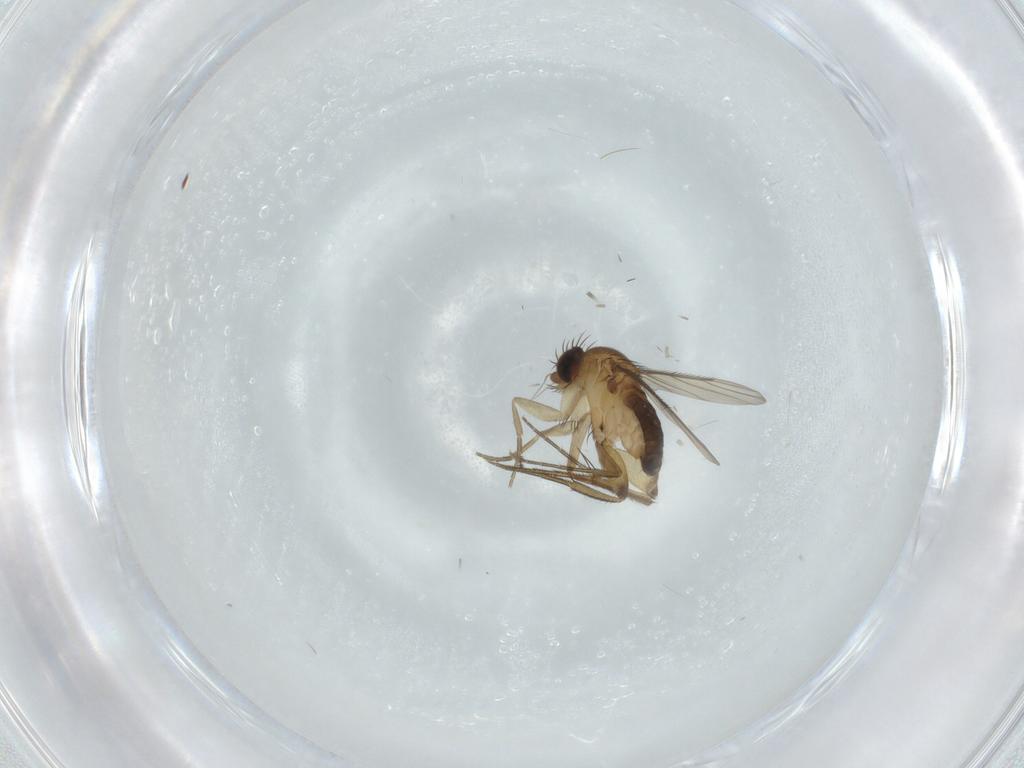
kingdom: Animalia
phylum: Arthropoda
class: Insecta
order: Diptera
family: Phoridae
